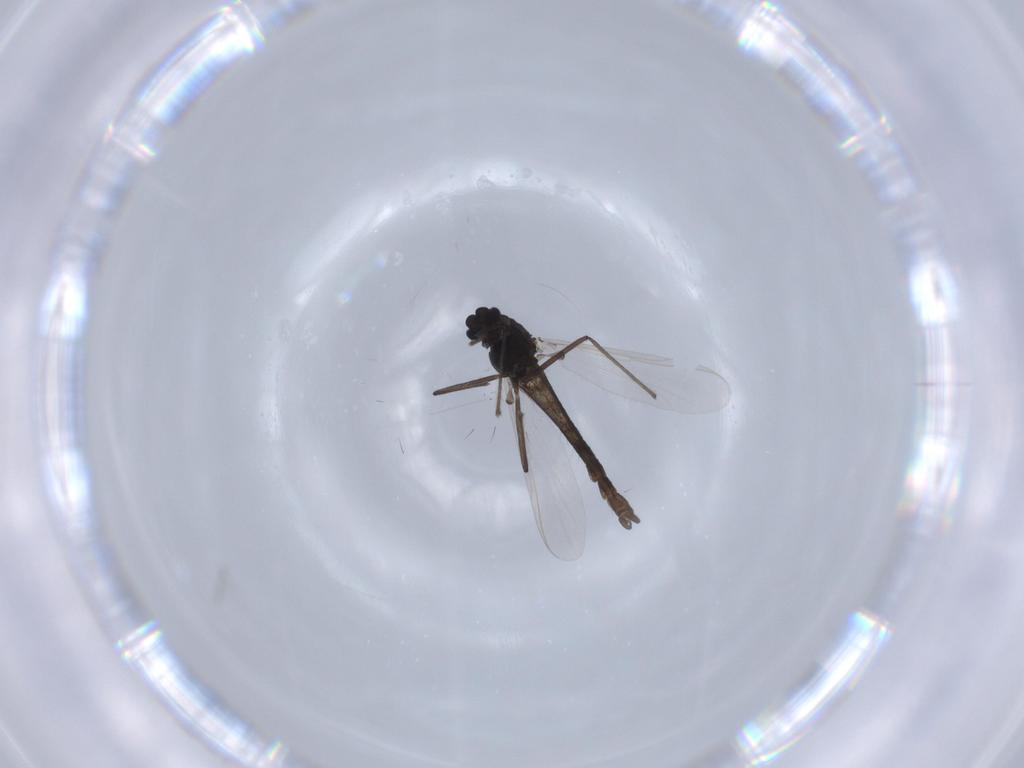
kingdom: Animalia
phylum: Arthropoda
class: Insecta
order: Diptera
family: Chironomidae
